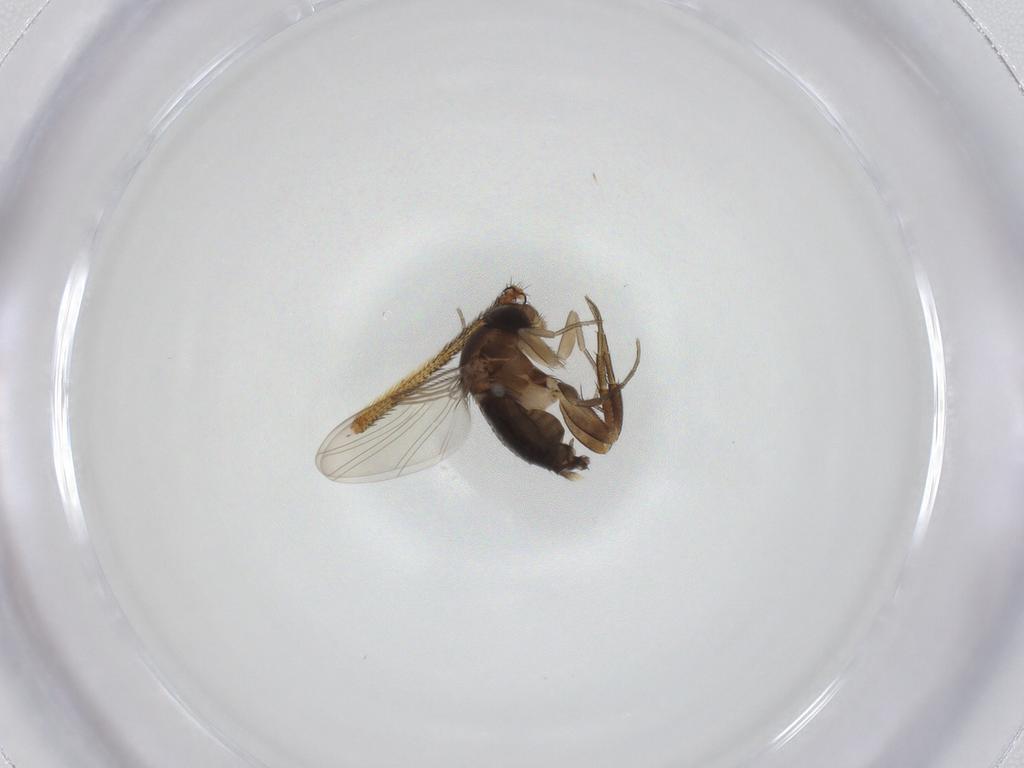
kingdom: Animalia
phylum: Arthropoda
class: Insecta
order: Diptera
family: Phoridae
